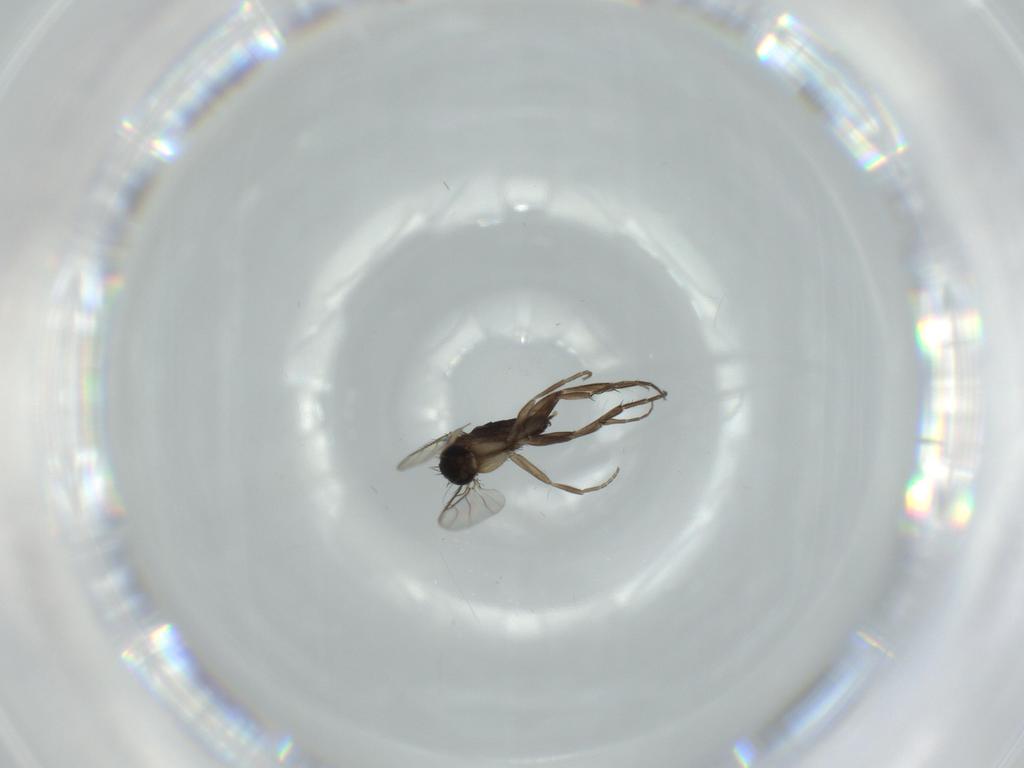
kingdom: Animalia
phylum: Arthropoda
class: Insecta
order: Diptera
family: Phoridae
